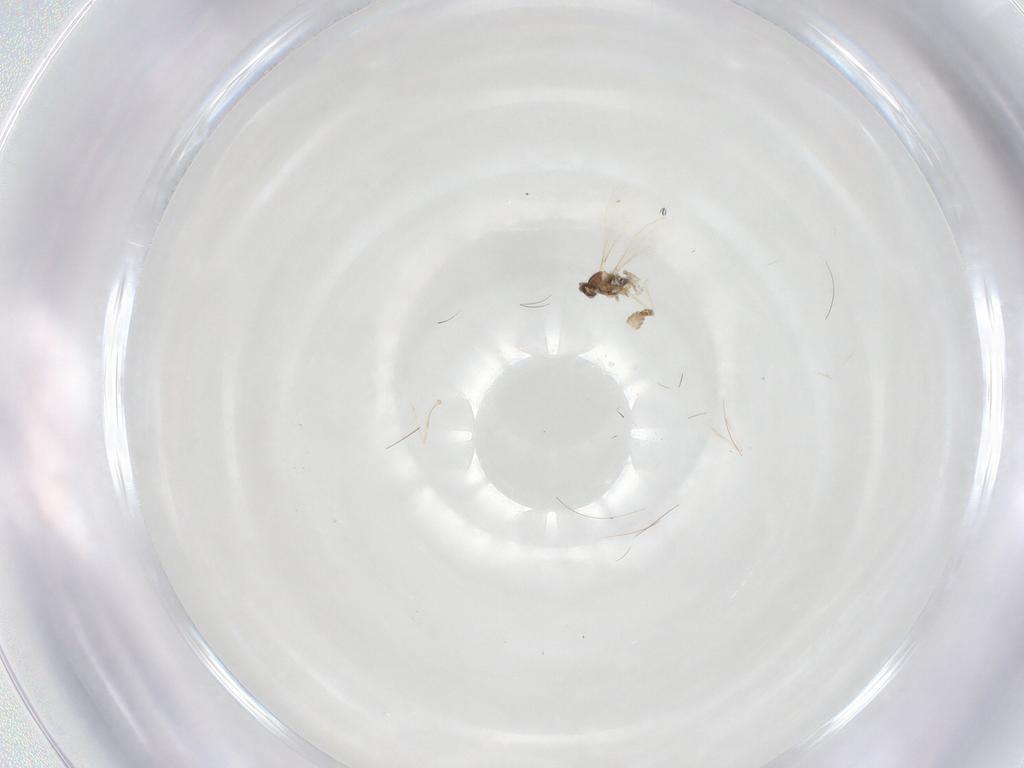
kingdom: Animalia
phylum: Arthropoda
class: Insecta
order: Diptera
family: Cecidomyiidae
